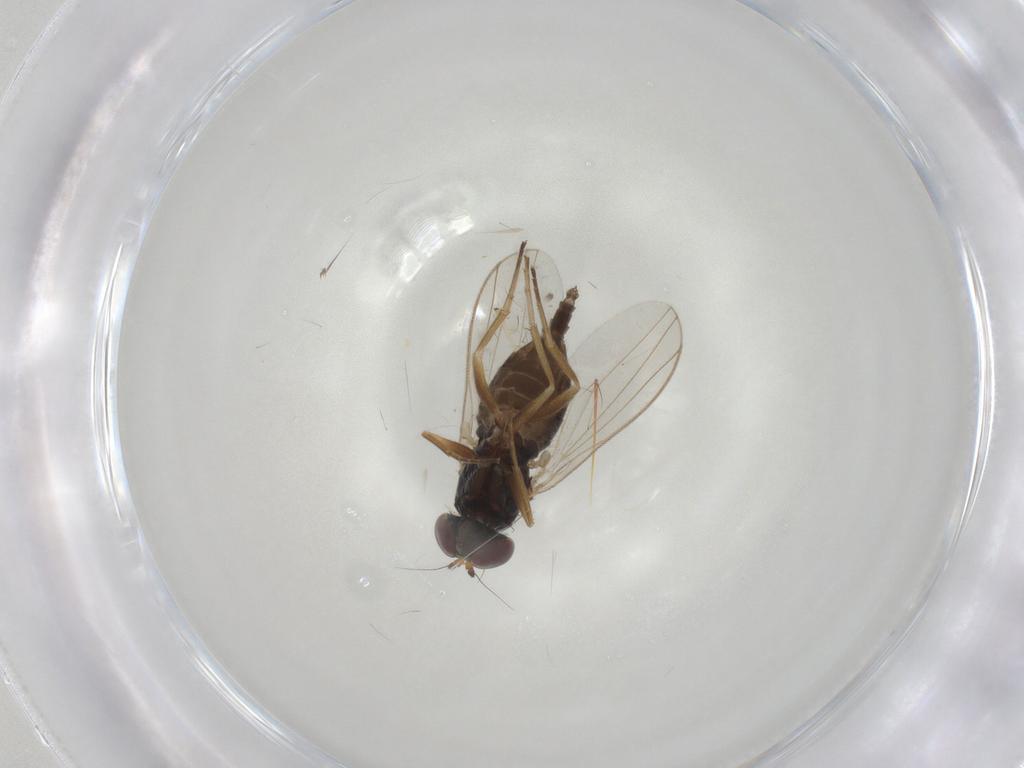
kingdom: Animalia
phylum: Arthropoda
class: Insecta
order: Diptera
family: Dolichopodidae
